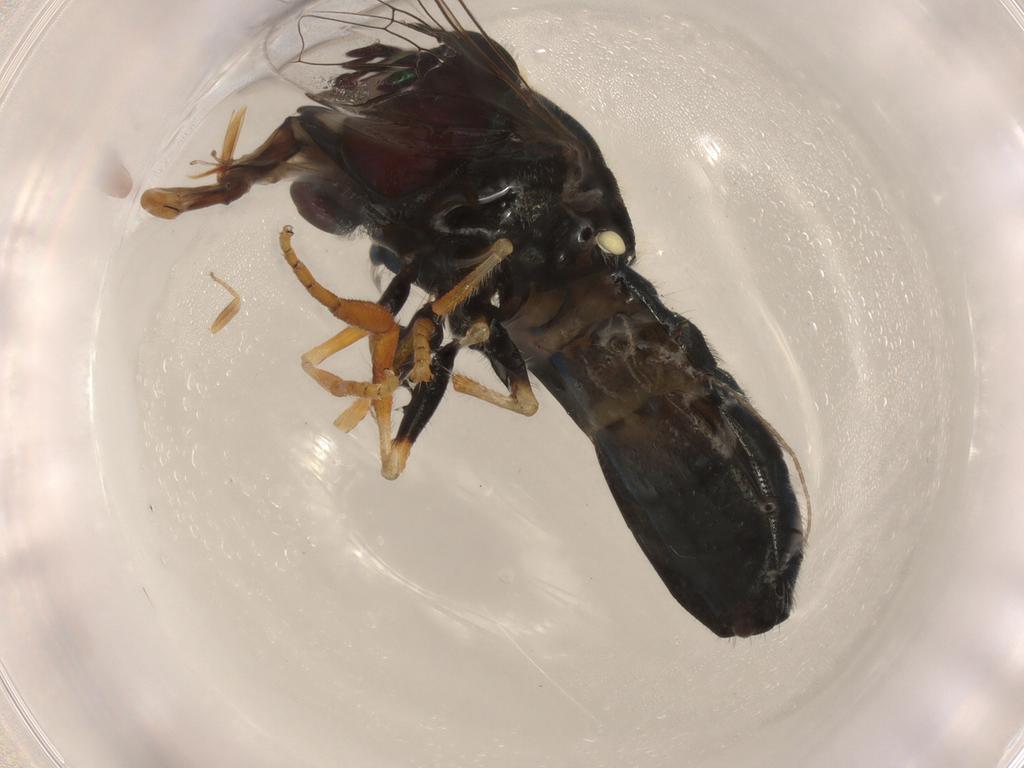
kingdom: Animalia
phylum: Arthropoda
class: Insecta
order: Diptera
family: Syrphidae
